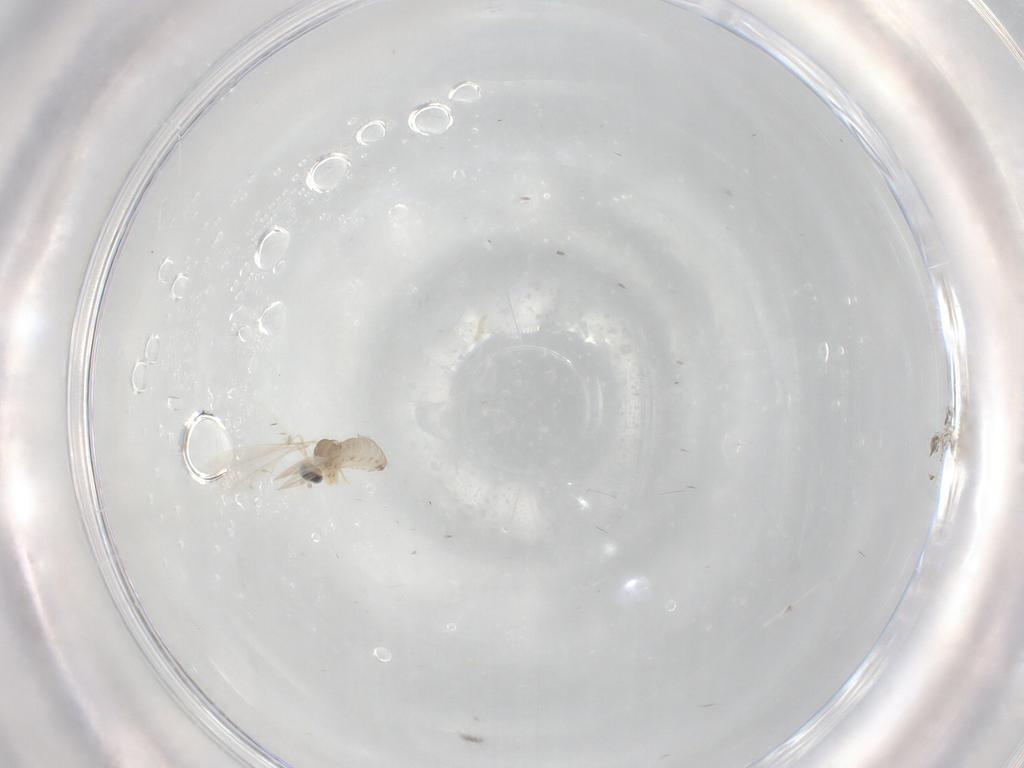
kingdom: Animalia
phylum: Arthropoda
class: Insecta
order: Diptera
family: Cecidomyiidae
